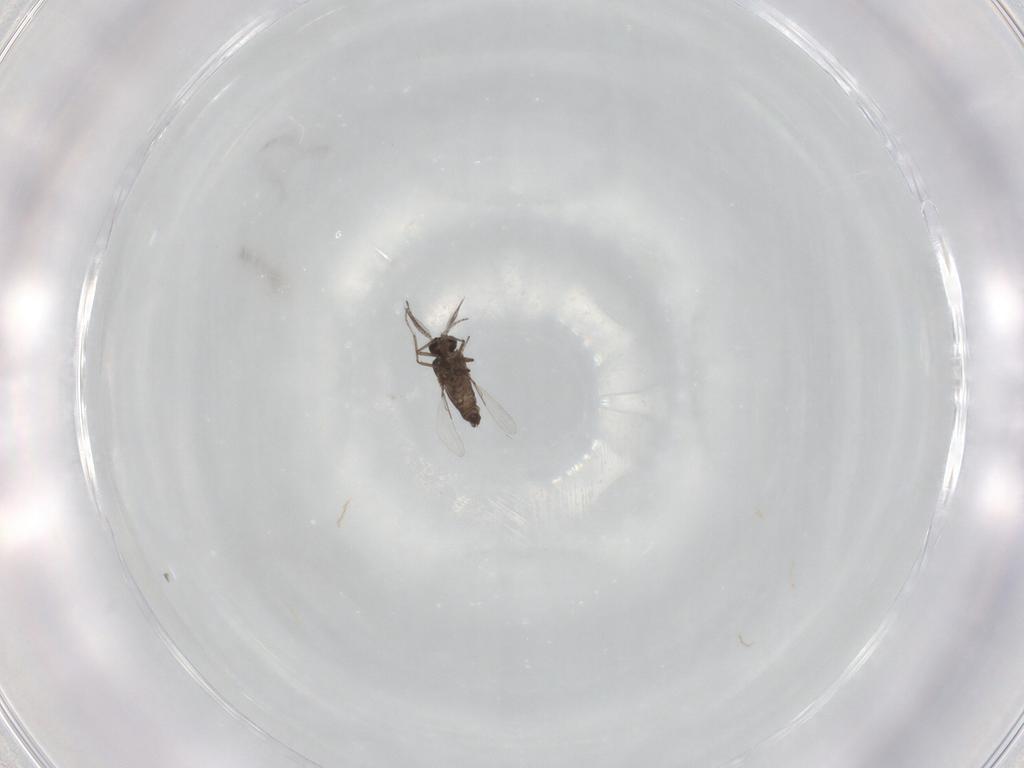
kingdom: Animalia
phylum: Arthropoda
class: Insecta
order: Diptera
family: Ceratopogonidae
